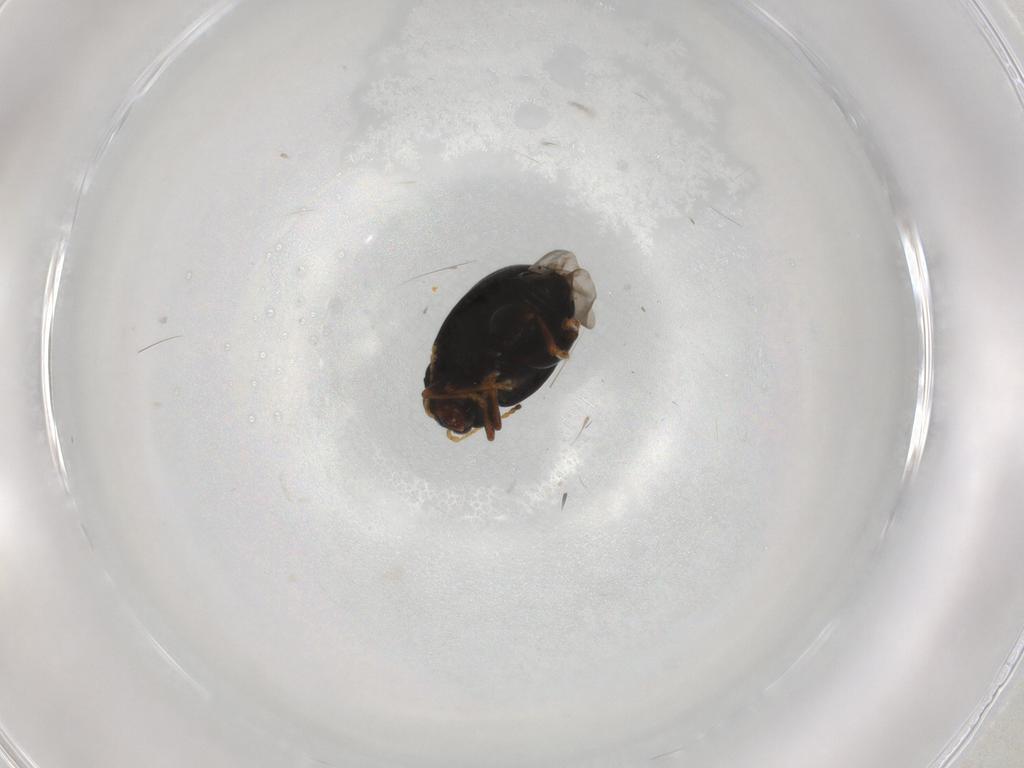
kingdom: Animalia
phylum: Arthropoda
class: Insecta
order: Coleoptera
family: Chrysomelidae
